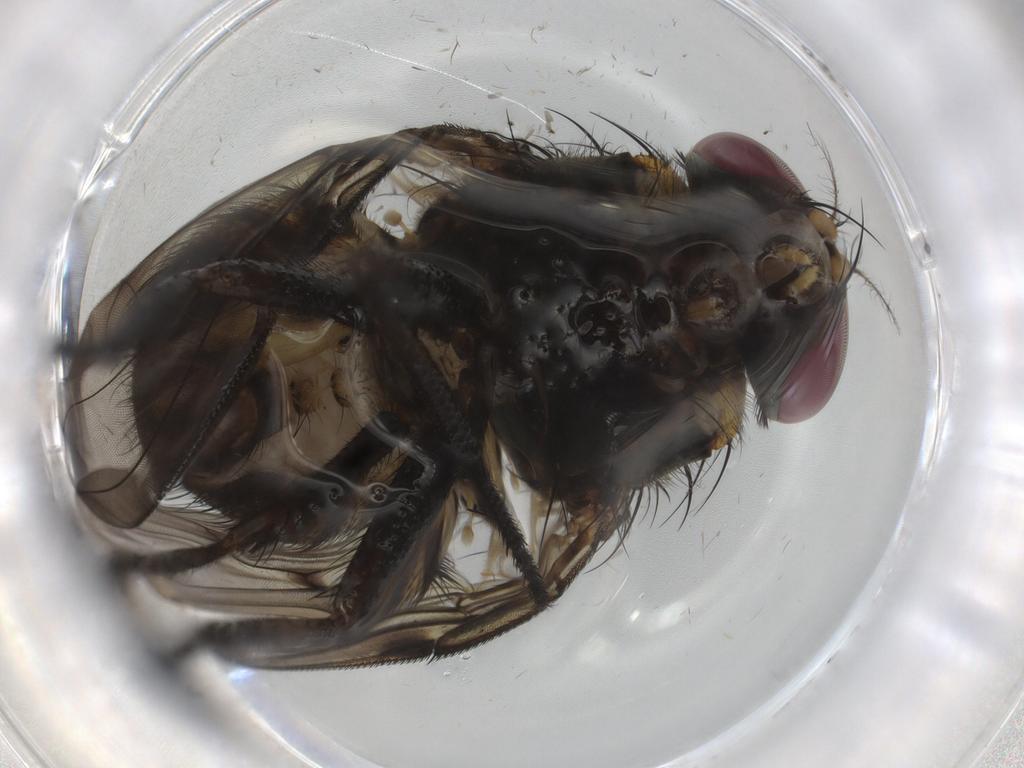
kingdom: Animalia
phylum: Arthropoda
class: Insecta
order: Diptera
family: Chironomidae
